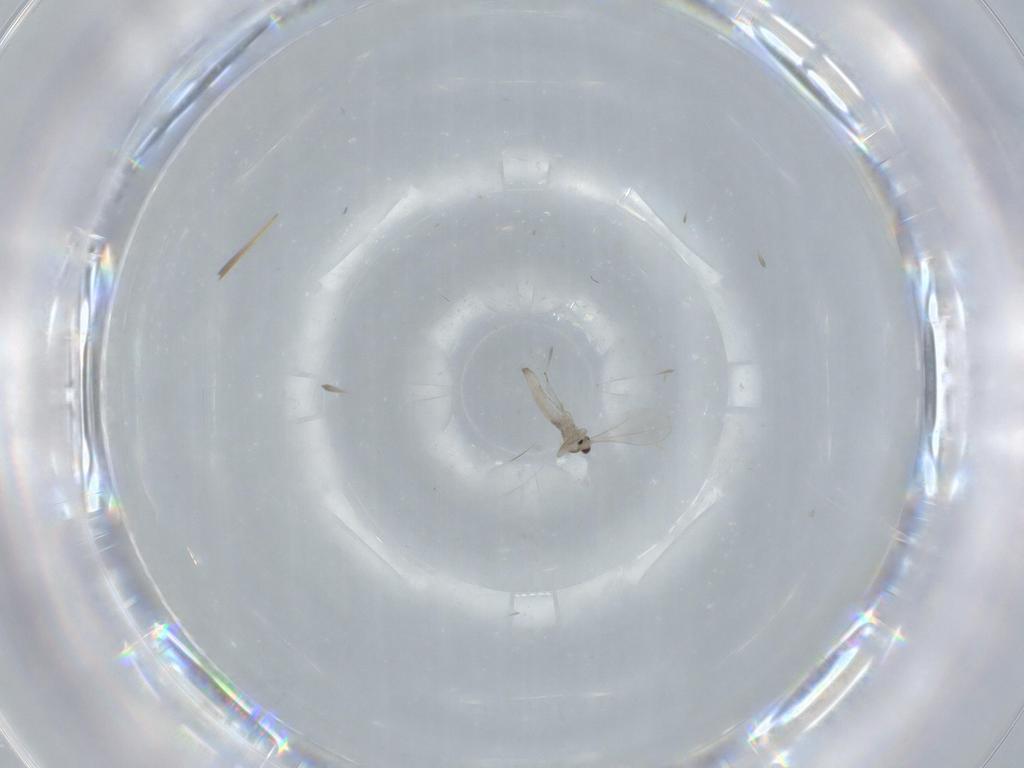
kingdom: Animalia
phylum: Arthropoda
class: Insecta
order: Diptera
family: Cecidomyiidae
